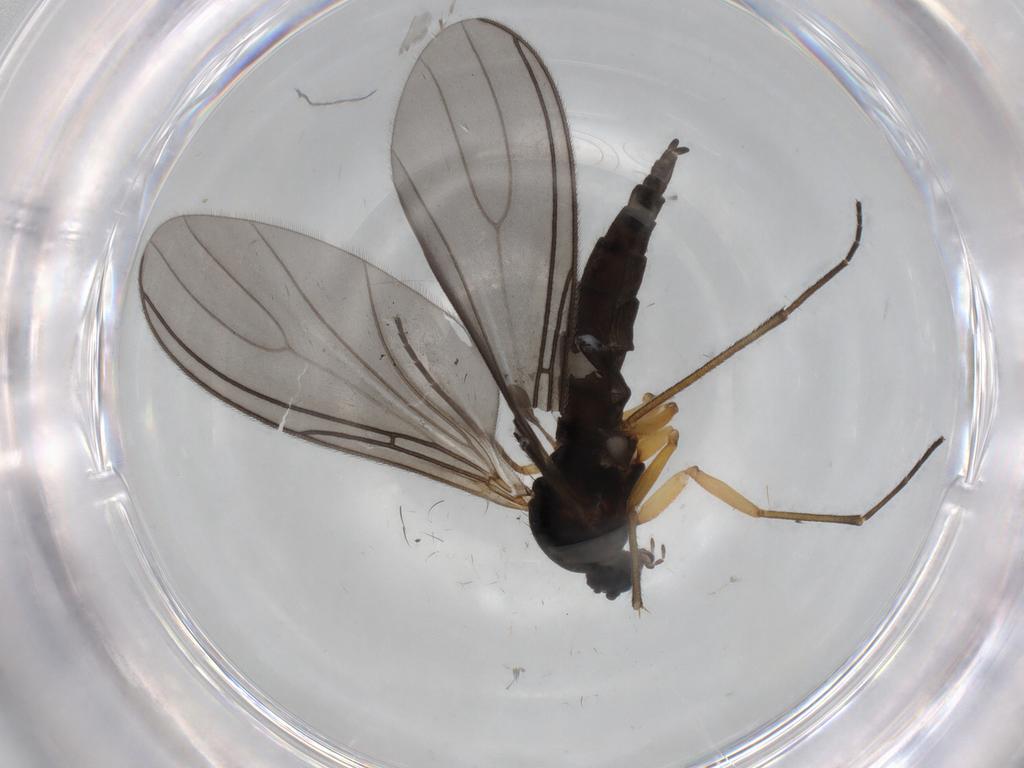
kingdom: Animalia
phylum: Arthropoda
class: Insecta
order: Diptera
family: Sciaridae
